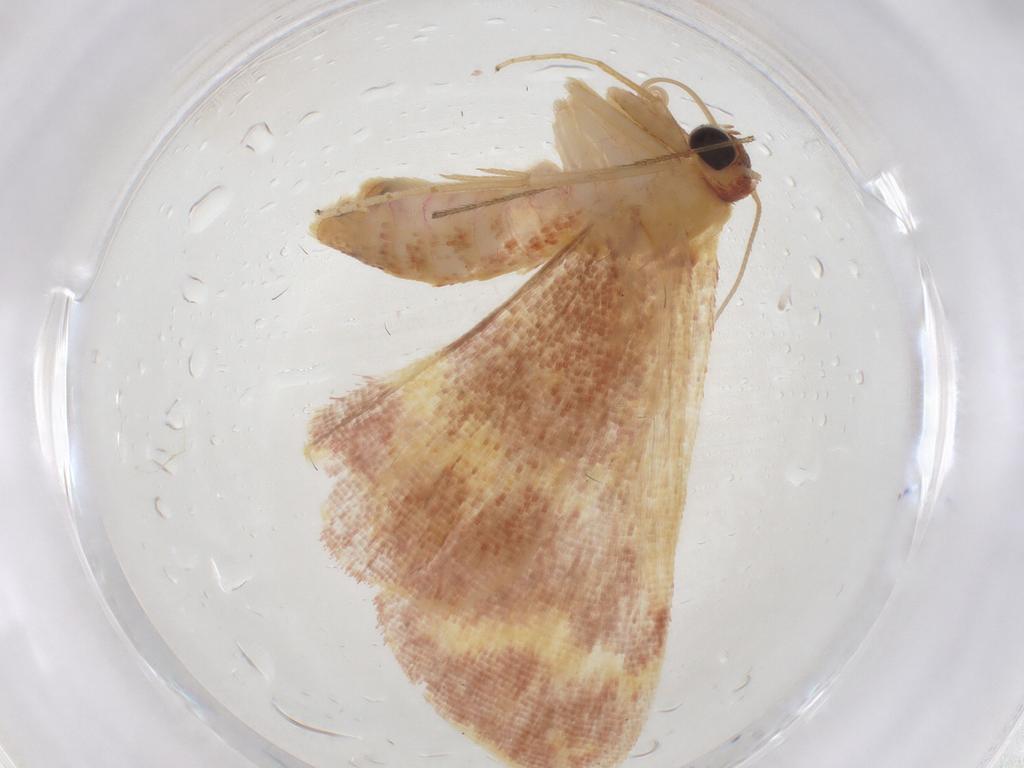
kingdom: Animalia
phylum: Arthropoda
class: Insecta
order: Lepidoptera
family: Geometridae
